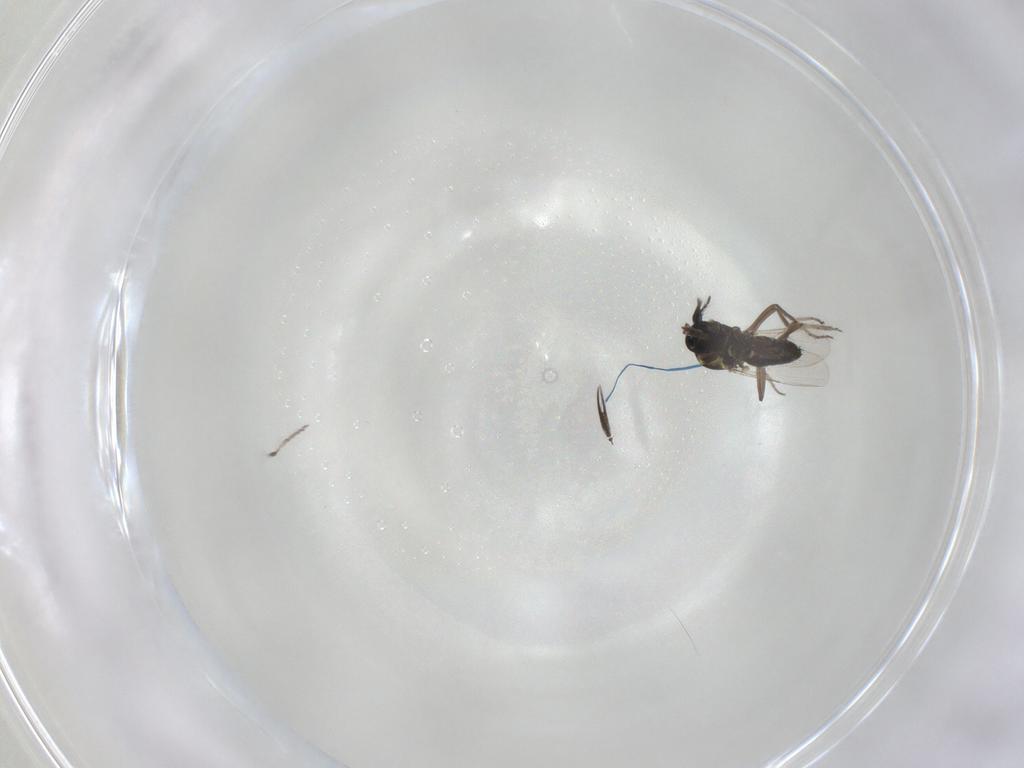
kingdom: Animalia
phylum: Arthropoda
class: Insecta
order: Diptera
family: Ceratopogonidae
